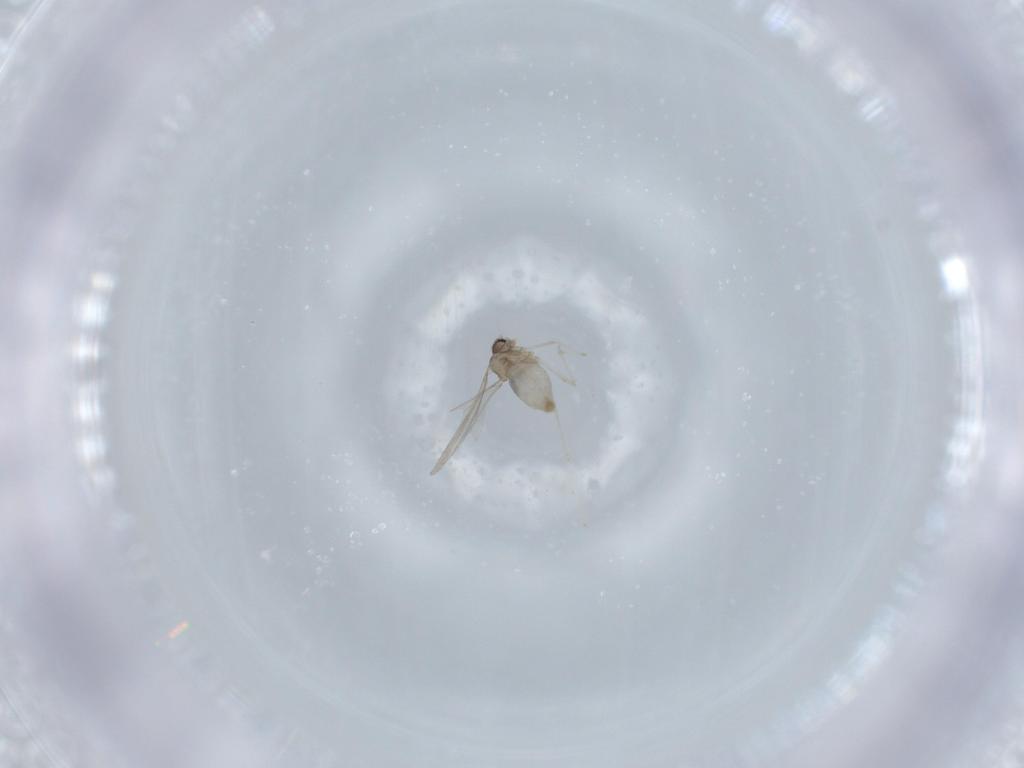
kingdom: Animalia
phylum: Arthropoda
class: Insecta
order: Diptera
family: Sphaeroceridae
